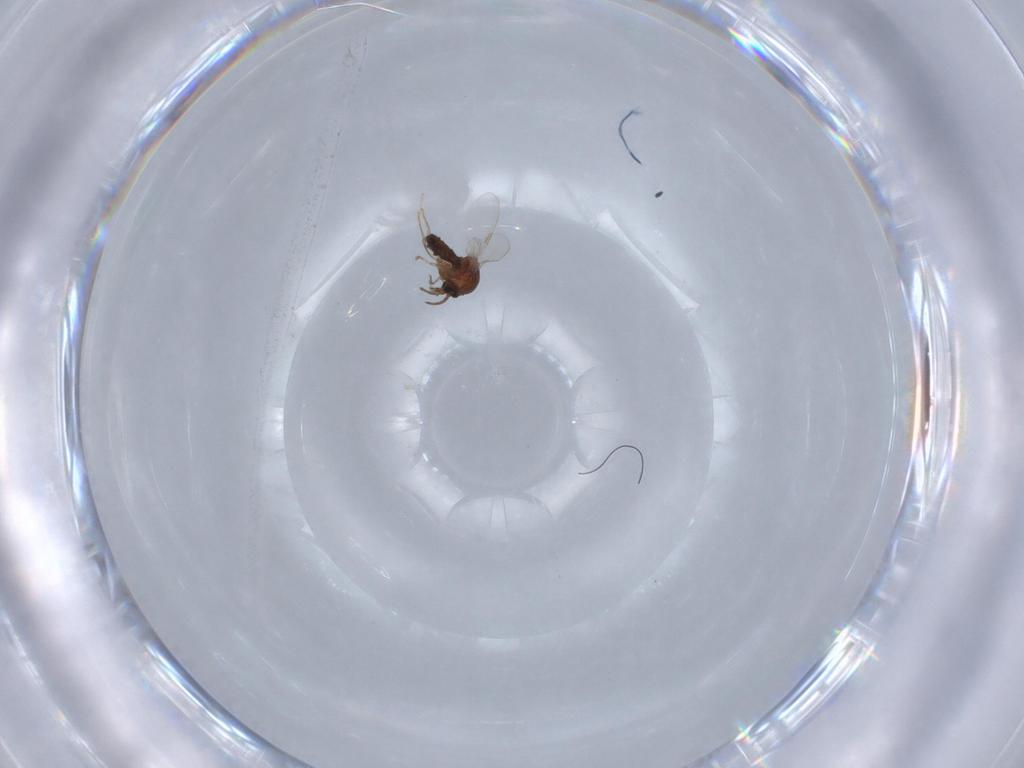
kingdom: Animalia
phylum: Arthropoda
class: Insecta
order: Diptera
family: Ceratopogonidae
